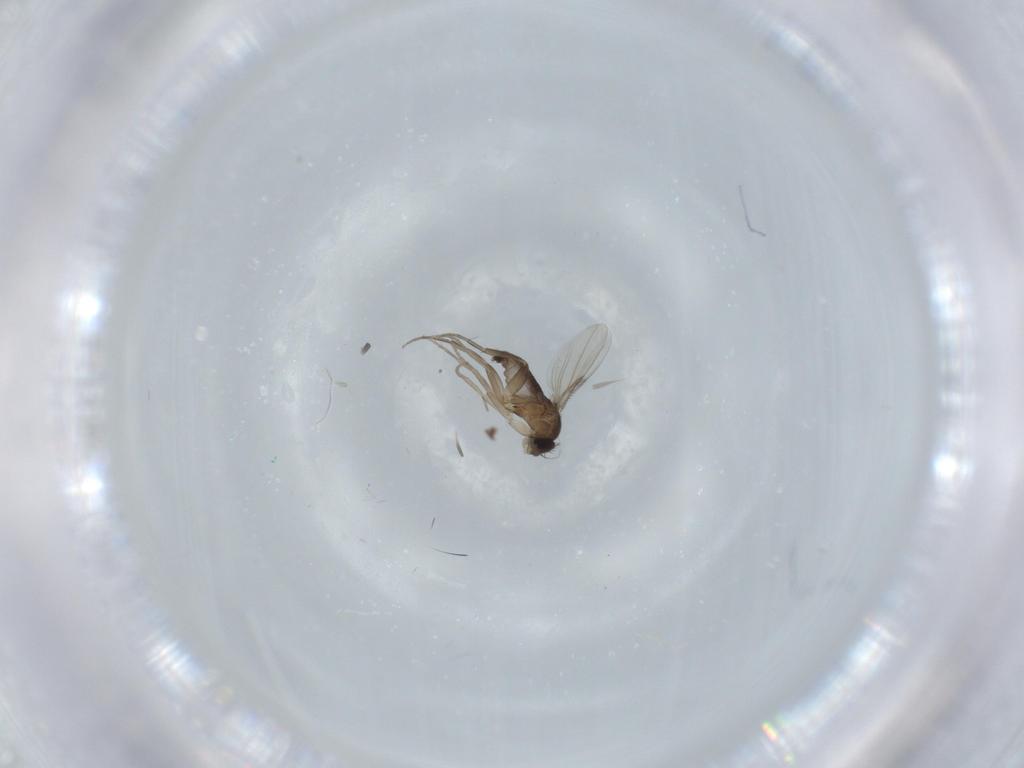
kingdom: Animalia
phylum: Arthropoda
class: Insecta
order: Diptera
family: Phoridae
